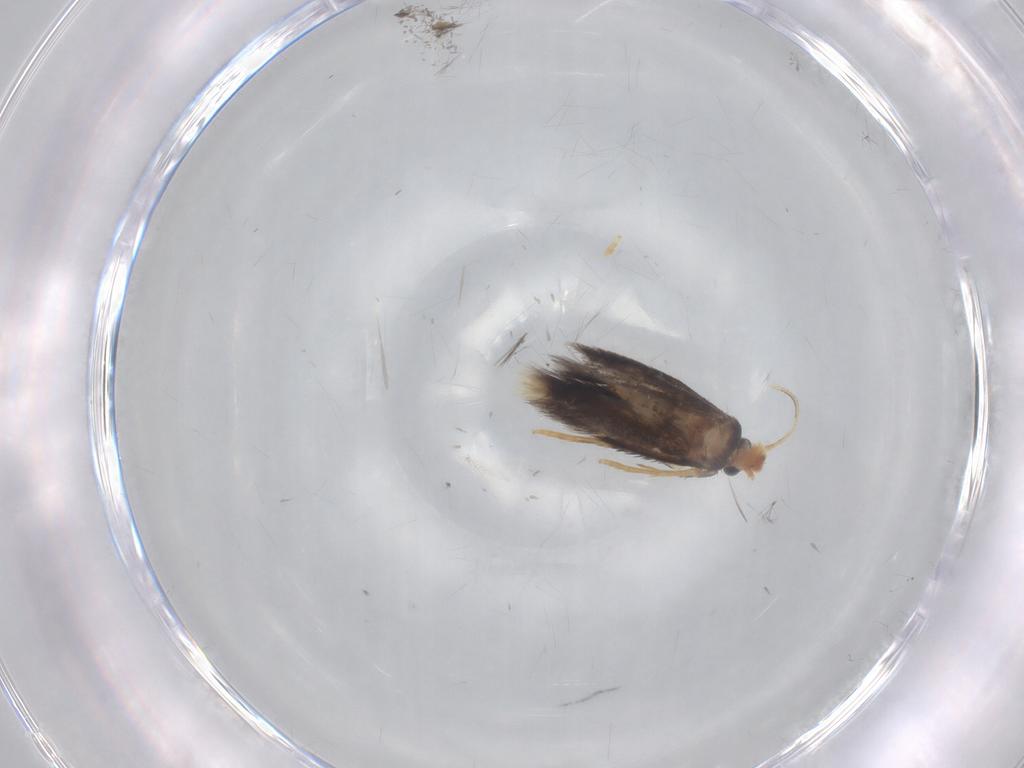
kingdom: Animalia
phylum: Arthropoda
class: Insecta
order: Lepidoptera
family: Nepticulidae
